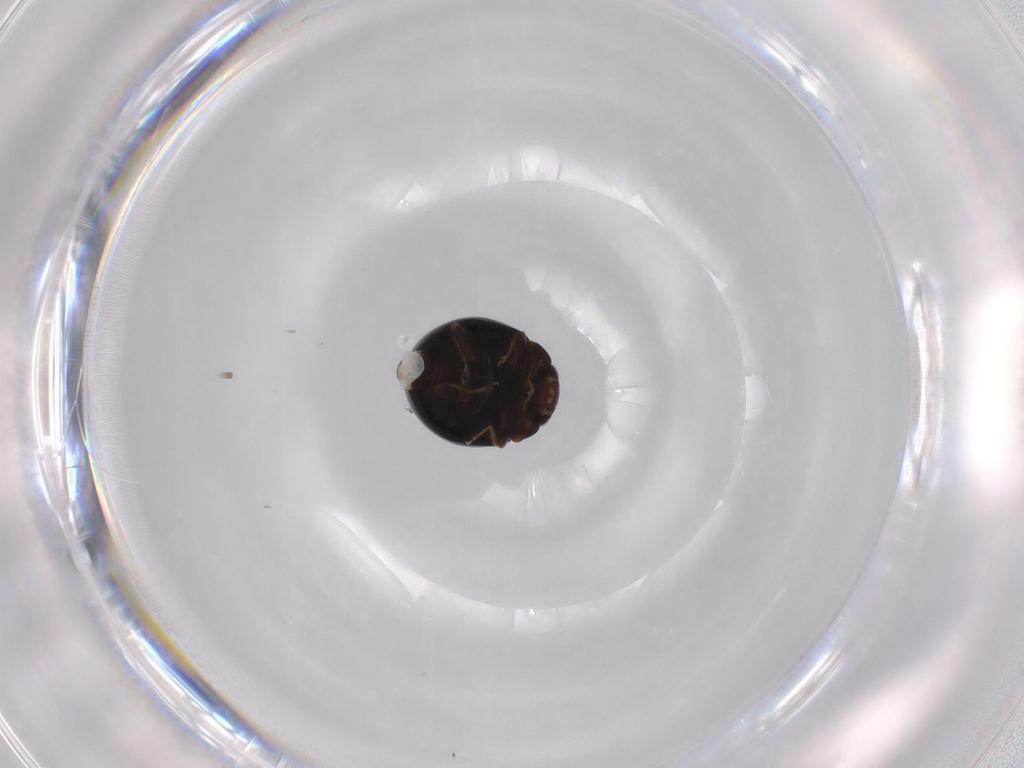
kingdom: Animalia
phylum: Arthropoda
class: Insecta
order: Coleoptera
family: Coccinellidae
